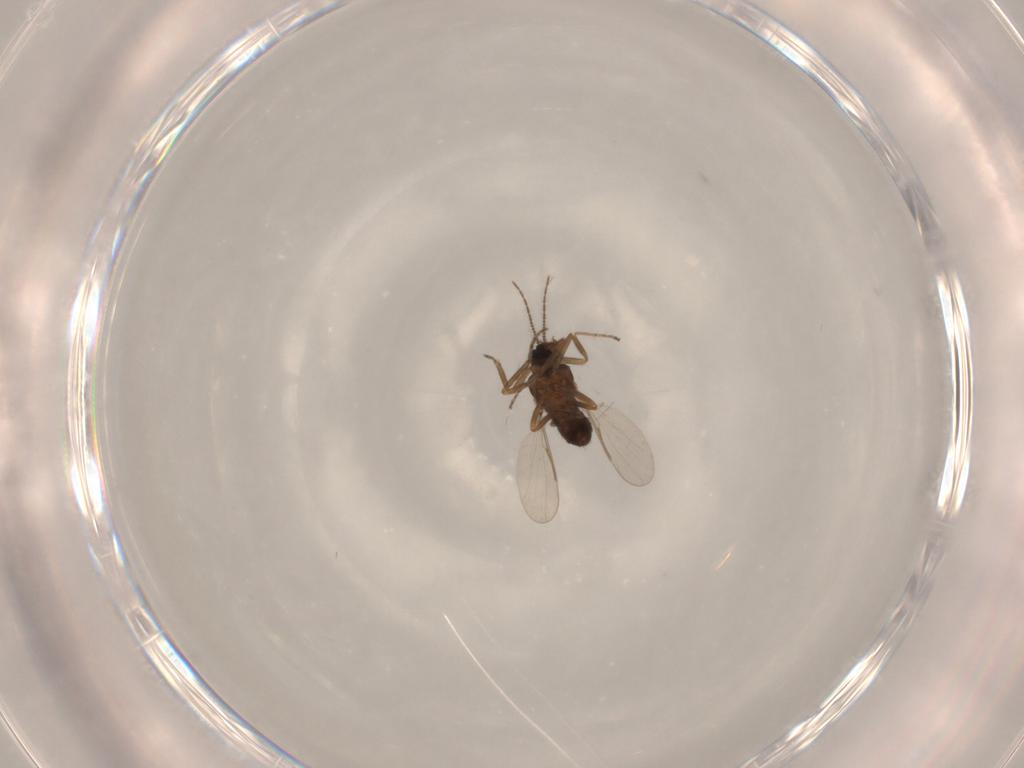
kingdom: Animalia
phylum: Arthropoda
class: Insecta
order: Diptera
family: Ceratopogonidae
